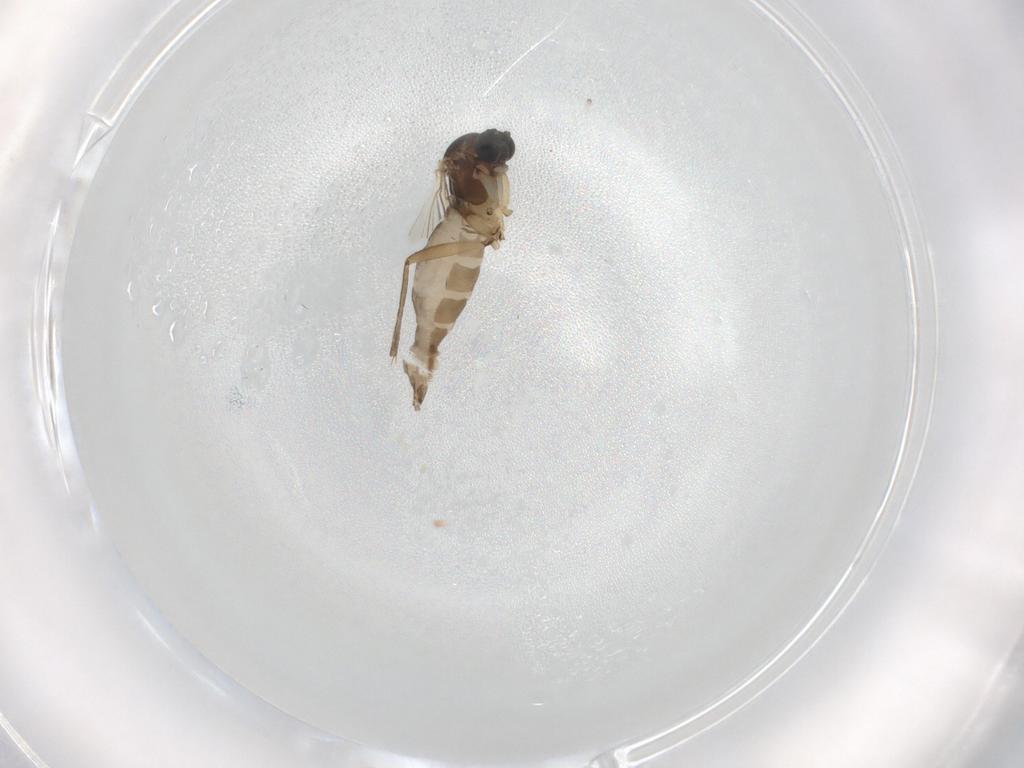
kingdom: Animalia
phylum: Arthropoda
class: Insecta
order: Diptera
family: Sciaridae
